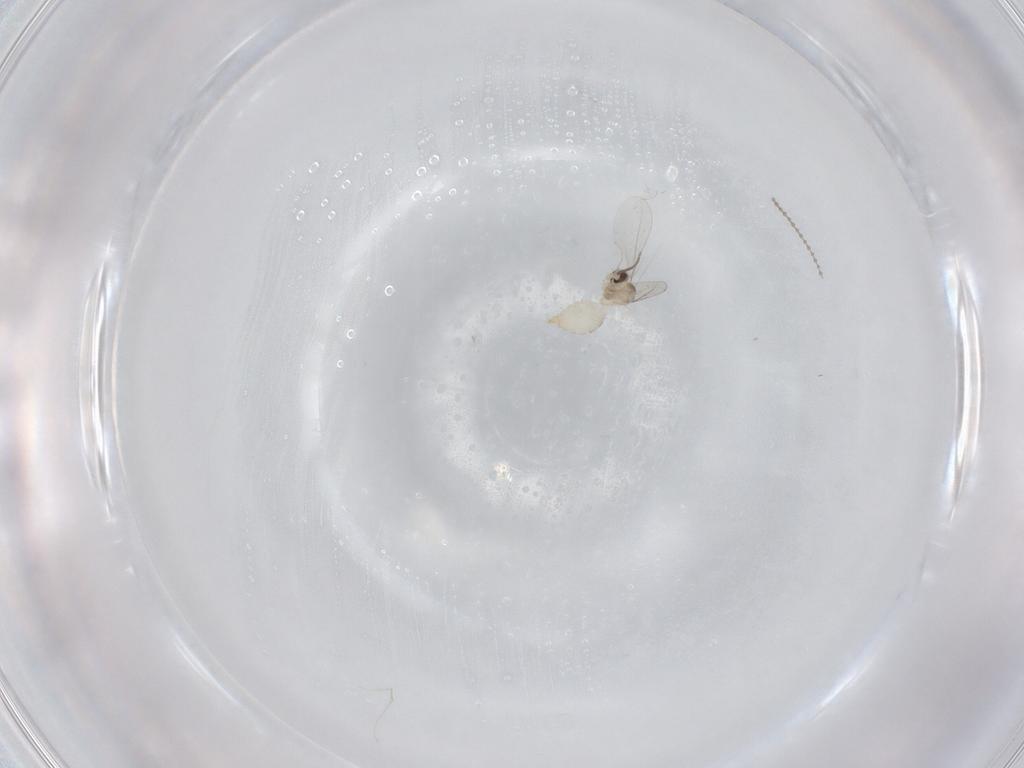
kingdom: Animalia
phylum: Arthropoda
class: Insecta
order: Diptera
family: Cecidomyiidae
